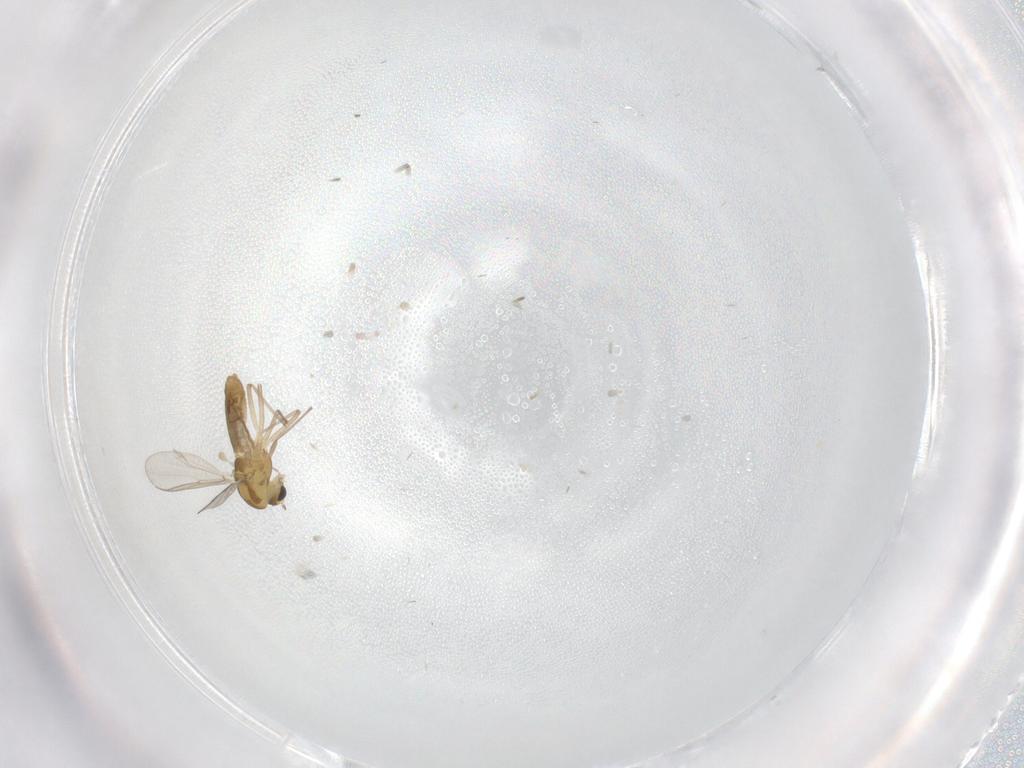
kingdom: Animalia
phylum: Arthropoda
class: Insecta
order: Diptera
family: Chironomidae
